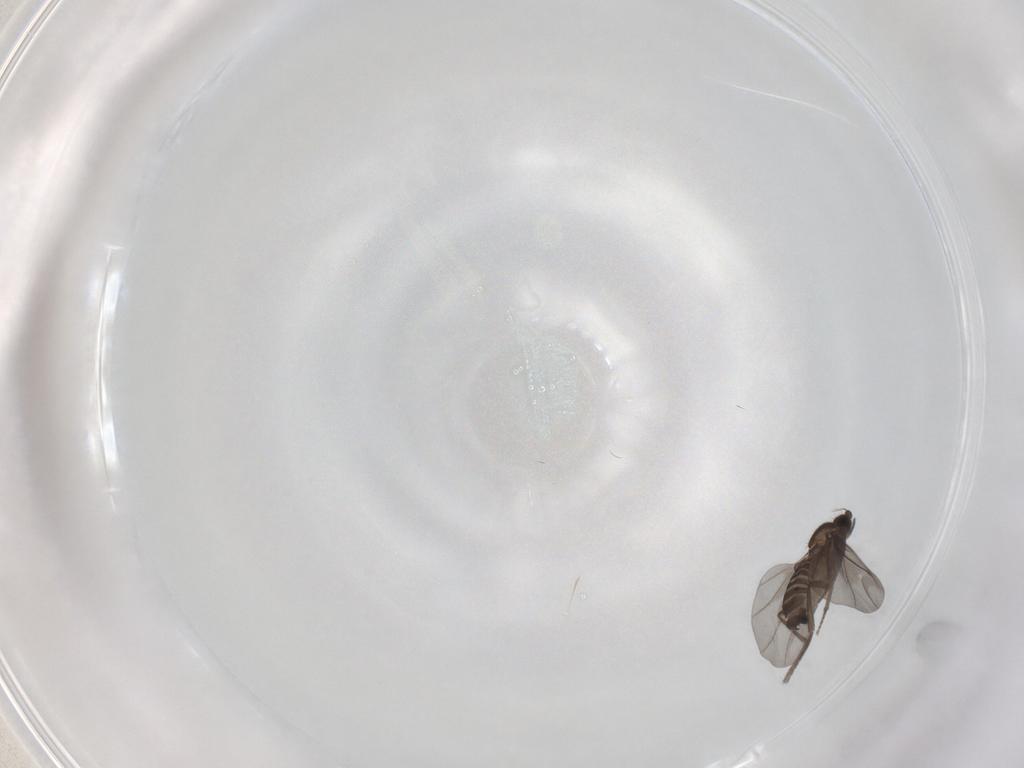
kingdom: Animalia
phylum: Arthropoda
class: Insecta
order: Diptera
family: Phoridae
